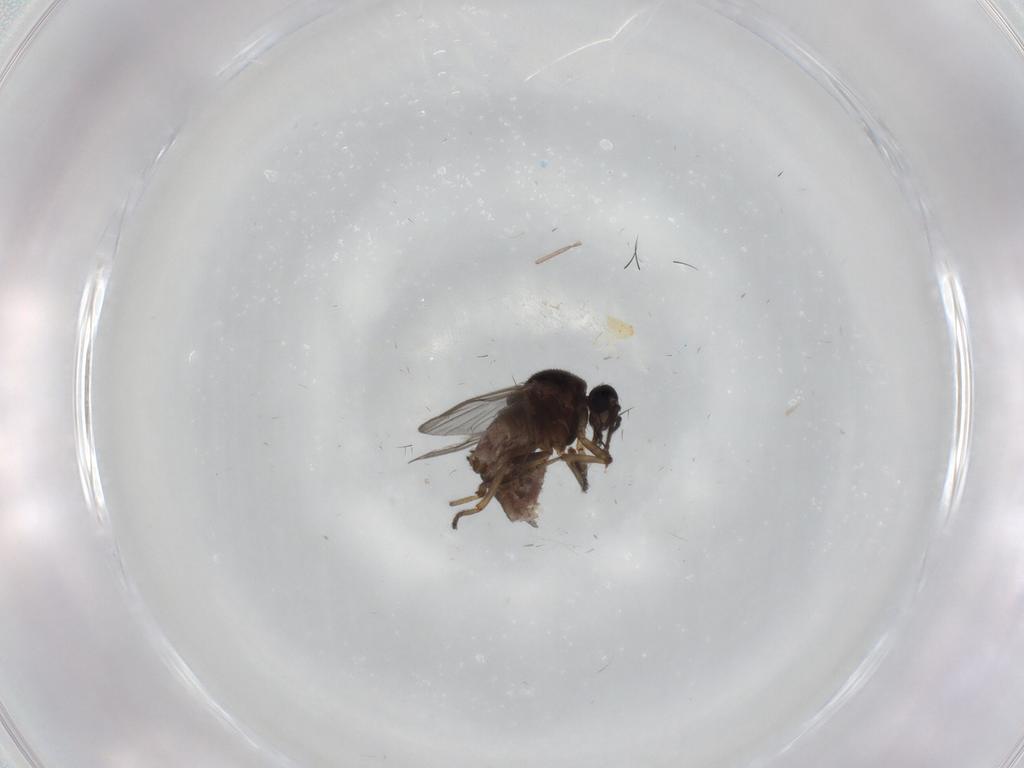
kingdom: Animalia
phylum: Arthropoda
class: Insecta
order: Diptera
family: Ceratopogonidae
